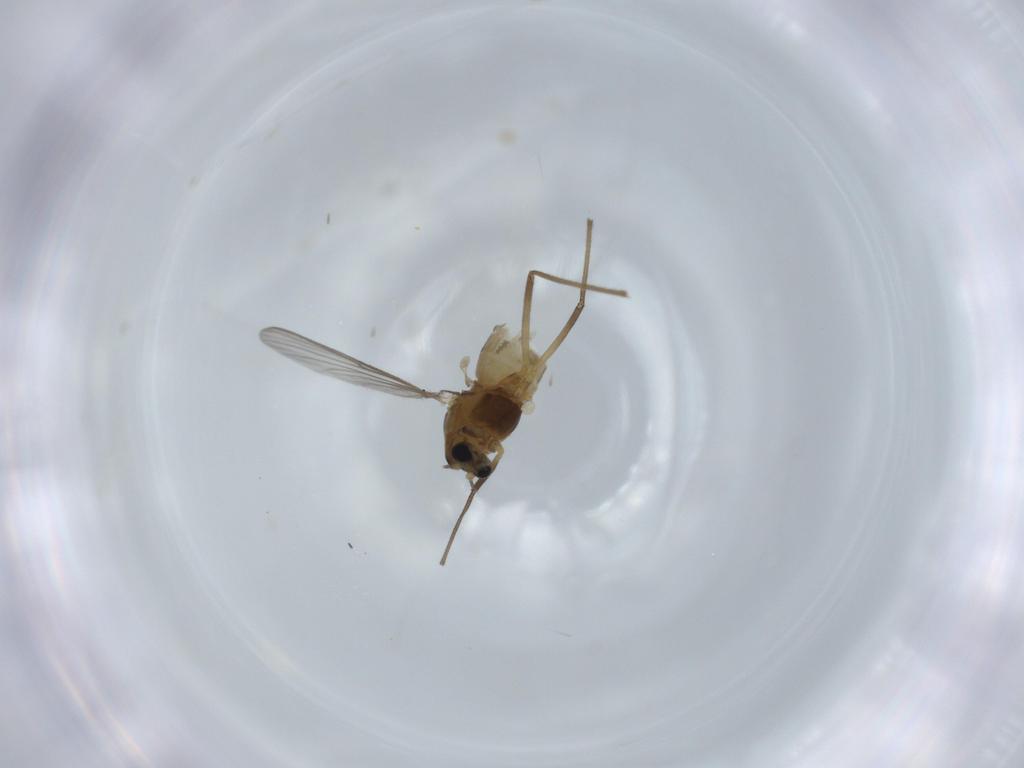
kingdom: Animalia
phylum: Arthropoda
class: Insecta
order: Diptera
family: Chironomidae
